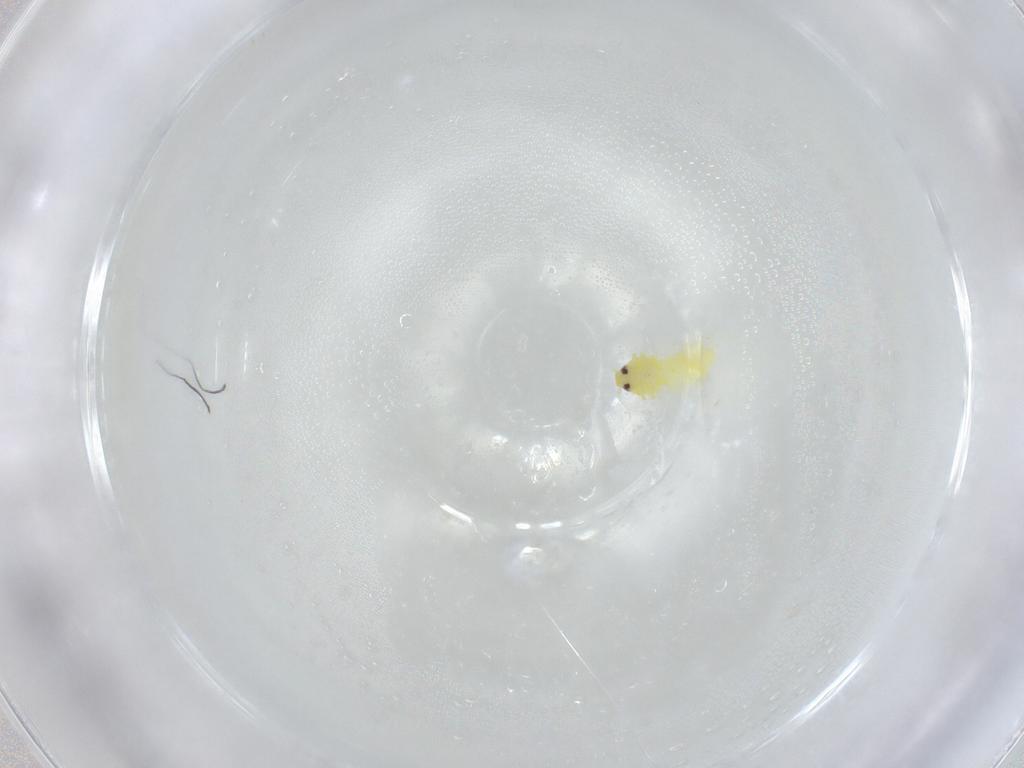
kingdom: Animalia
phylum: Arthropoda
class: Insecta
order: Hemiptera
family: Aleyrodidae
